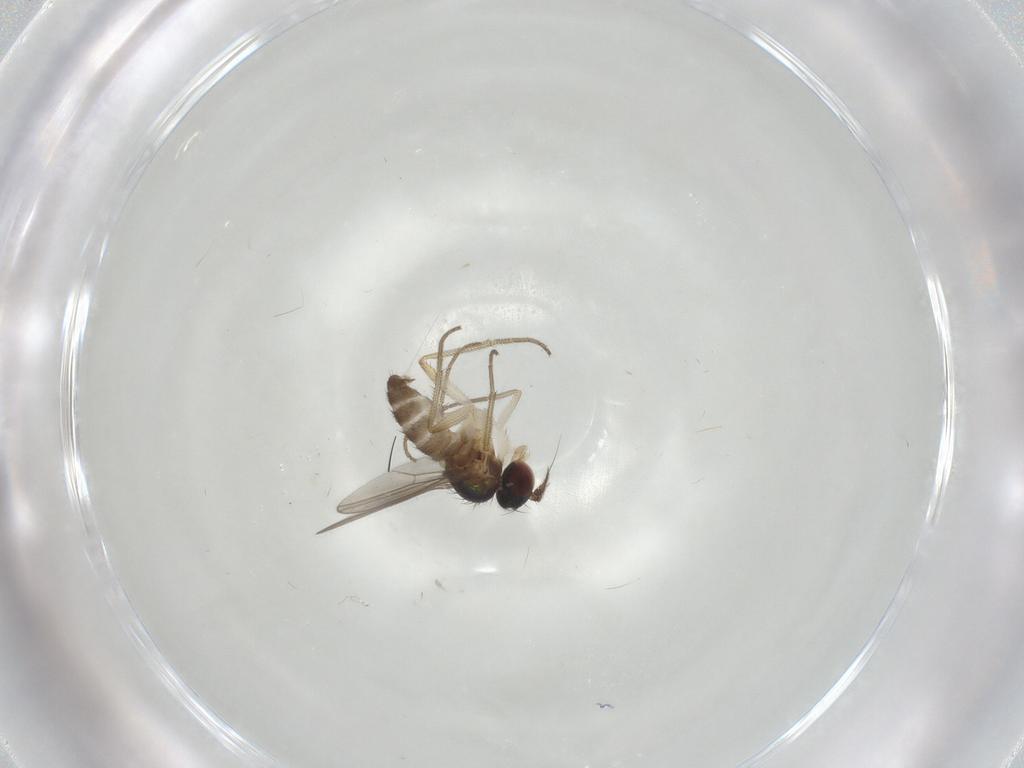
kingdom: Animalia
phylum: Arthropoda
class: Insecta
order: Diptera
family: Dolichopodidae
